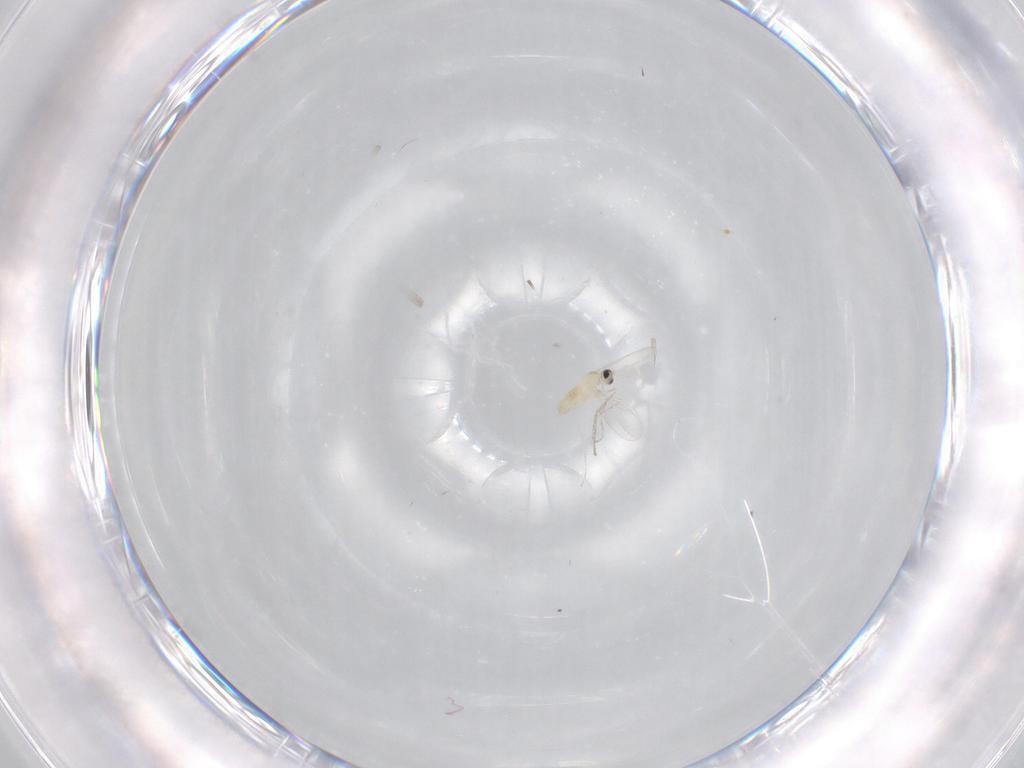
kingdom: Animalia
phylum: Arthropoda
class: Insecta
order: Diptera
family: Cecidomyiidae
